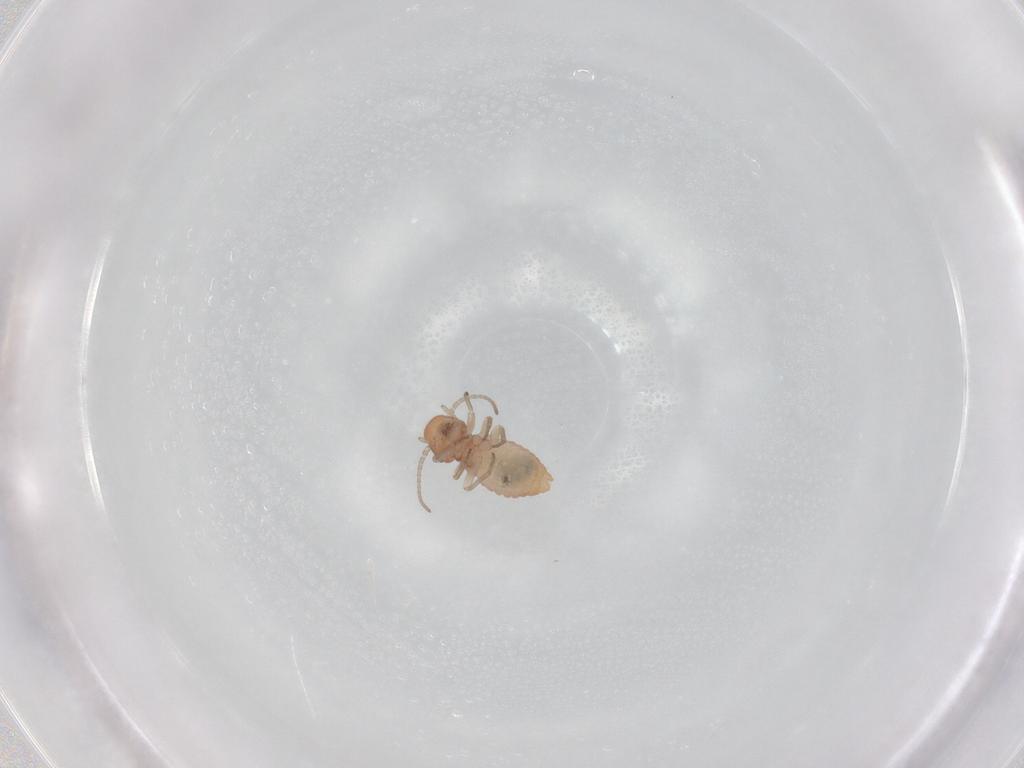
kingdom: Animalia
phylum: Arthropoda
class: Insecta
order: Psocodea
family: Caeciliusidae
